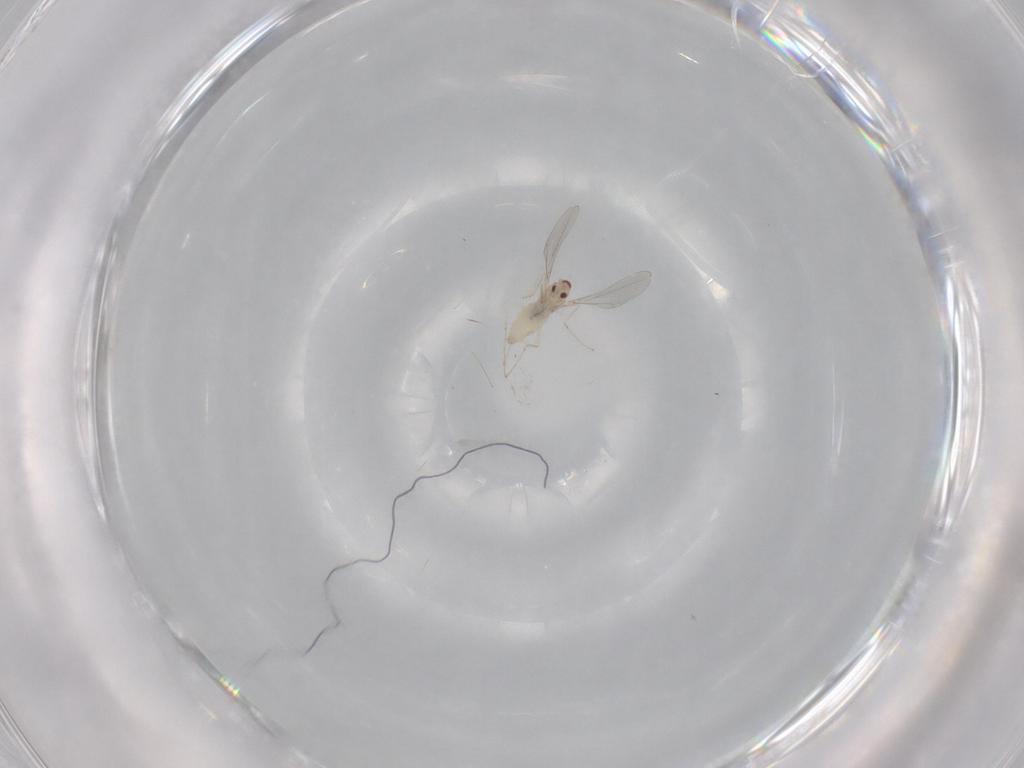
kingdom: Animalia
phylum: Arthropoda
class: Insecta
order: Diptera
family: Cecidomyiidae
